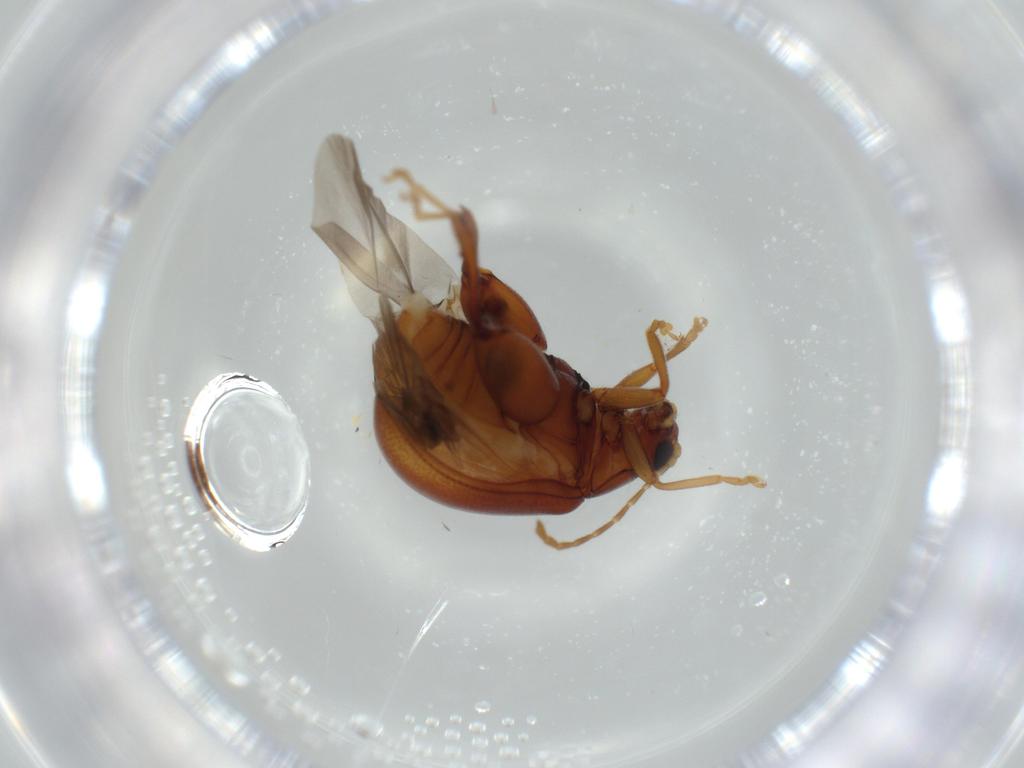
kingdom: Animalia
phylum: Arthropoda
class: Insecta
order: Coleoptera
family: Chrysomelidae
